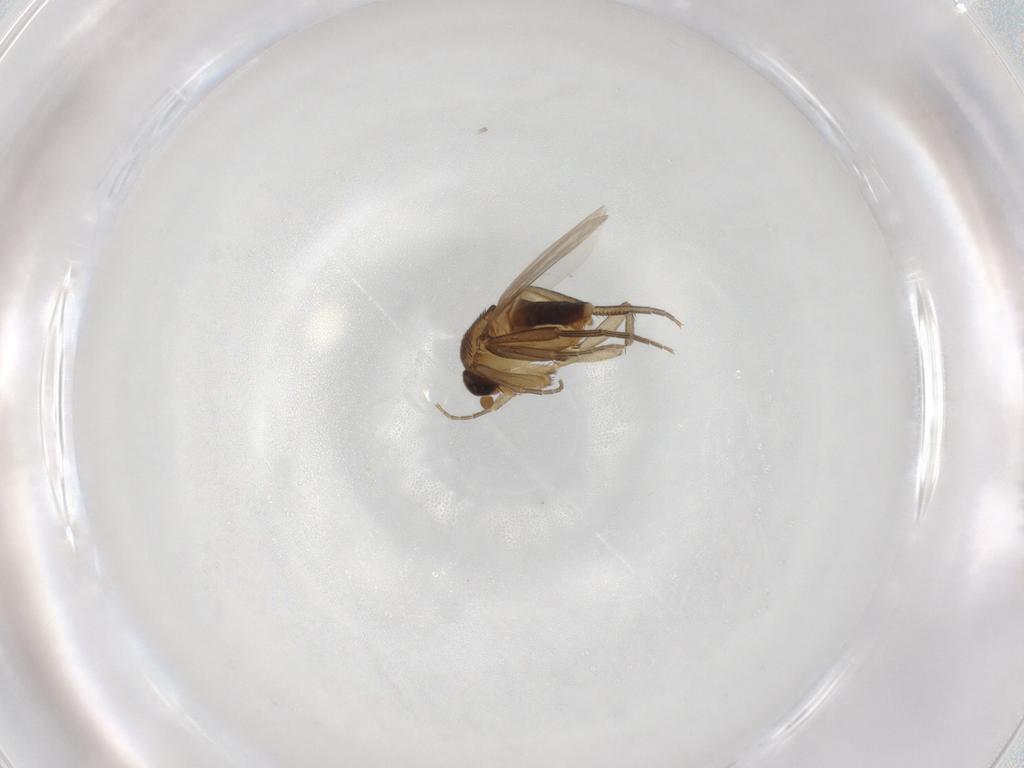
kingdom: Animalia
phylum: Arthropoda
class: Insecta
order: Diptera
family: Phoridae
